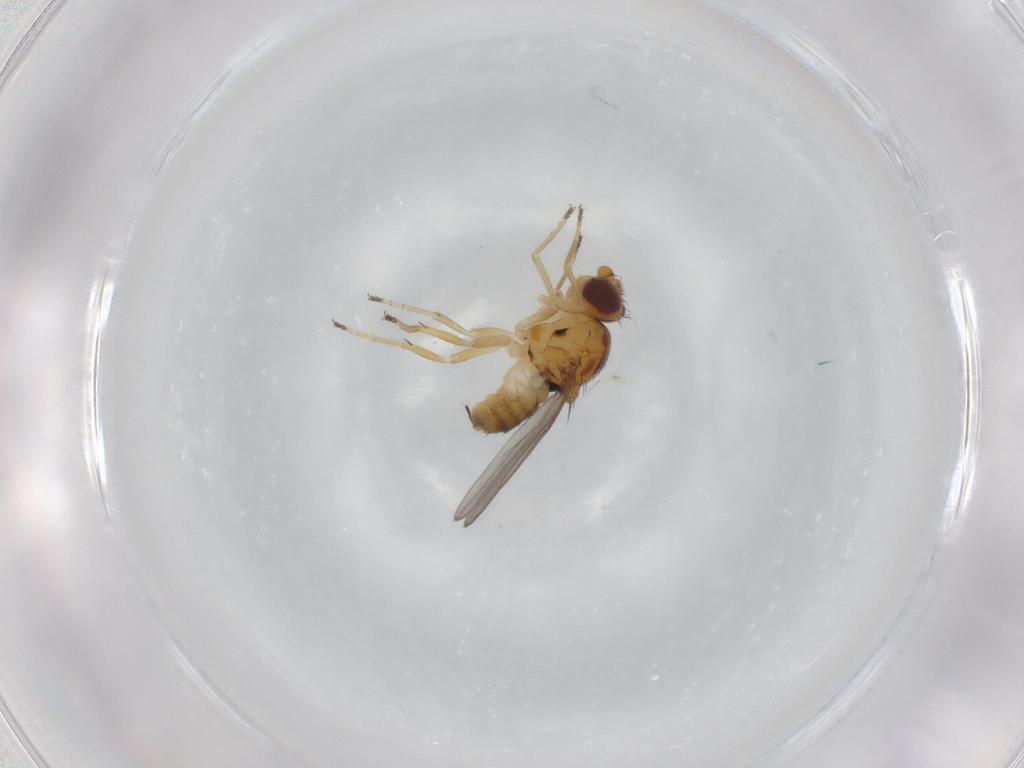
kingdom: Animalia
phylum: Arthropoda
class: Insecta
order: Diptera
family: Chloropidae
